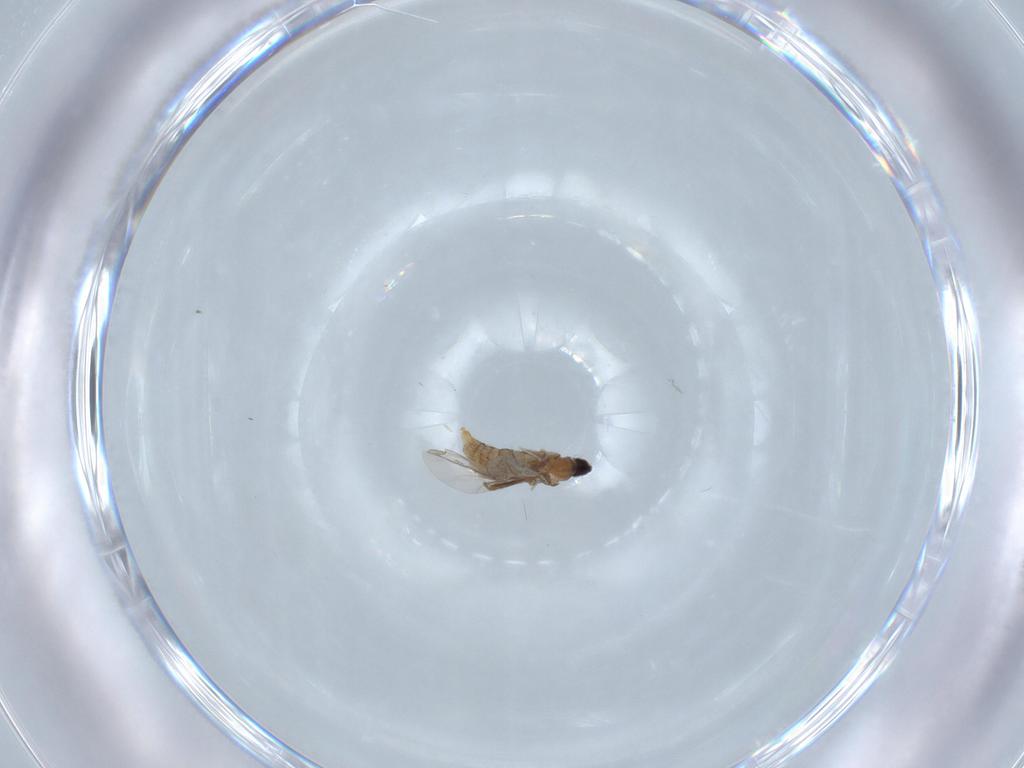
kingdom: Animalia
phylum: Arthropoda
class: Insecta
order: Diptera
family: Cecidomyiidae
